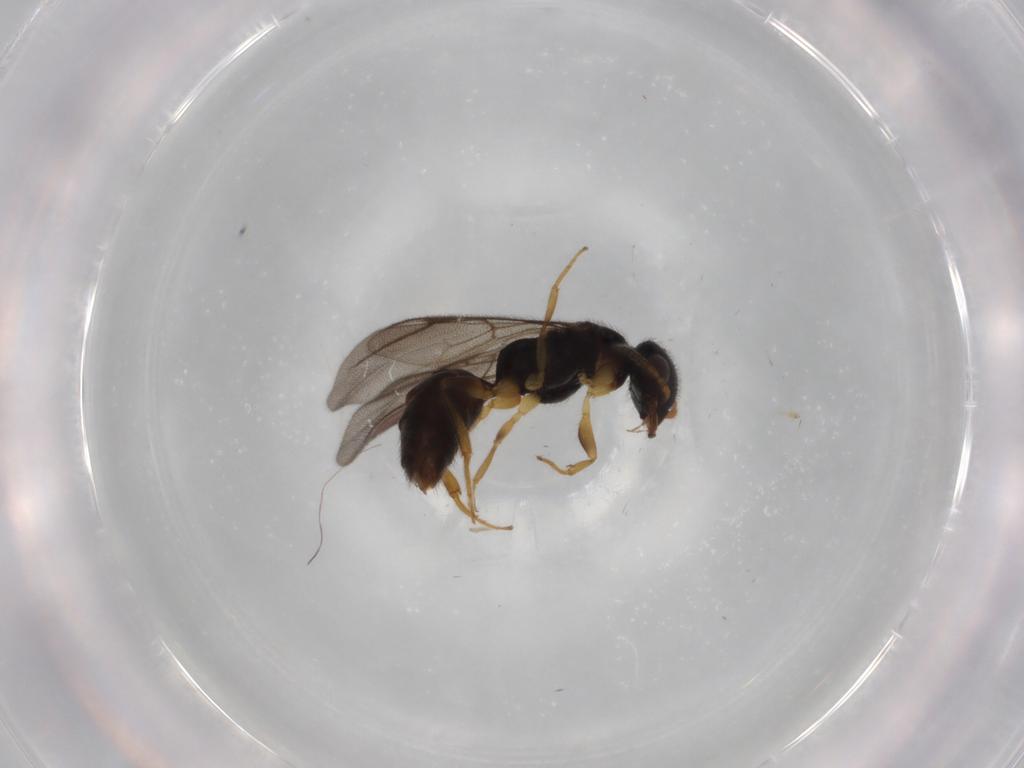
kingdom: Animalia
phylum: Arthropoda
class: Insecta
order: Hymenoptera
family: Bethylidae
